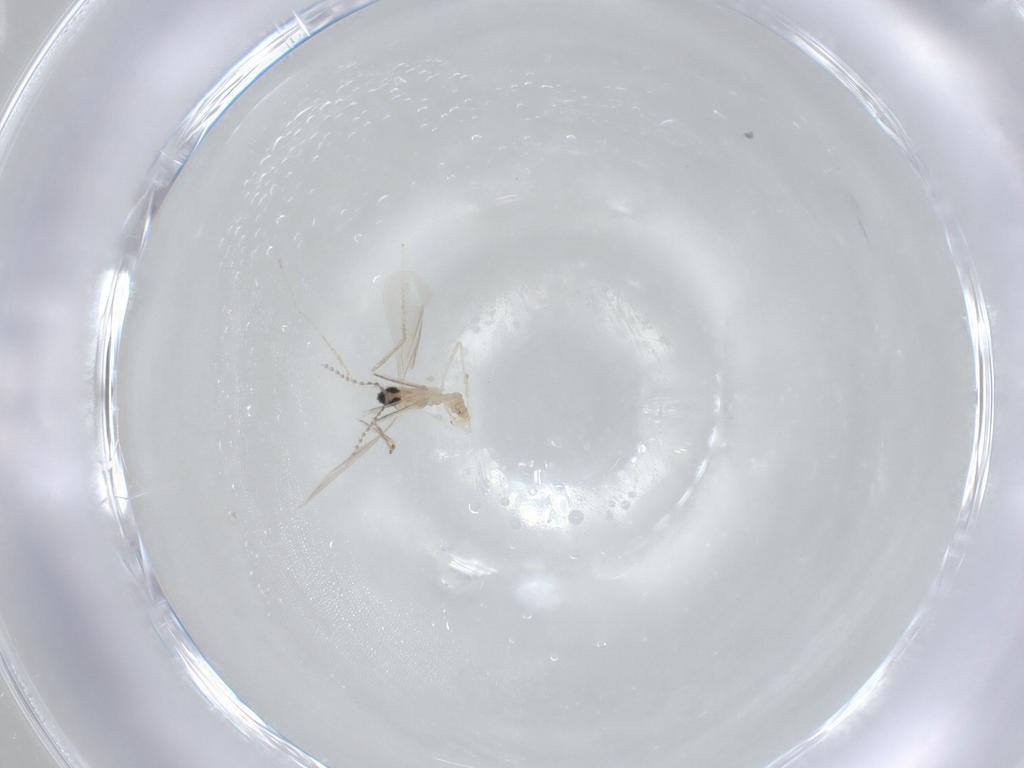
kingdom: Animalia
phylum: Arthropoda
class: Insecta
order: Diptera
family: Cecidomyiidae
